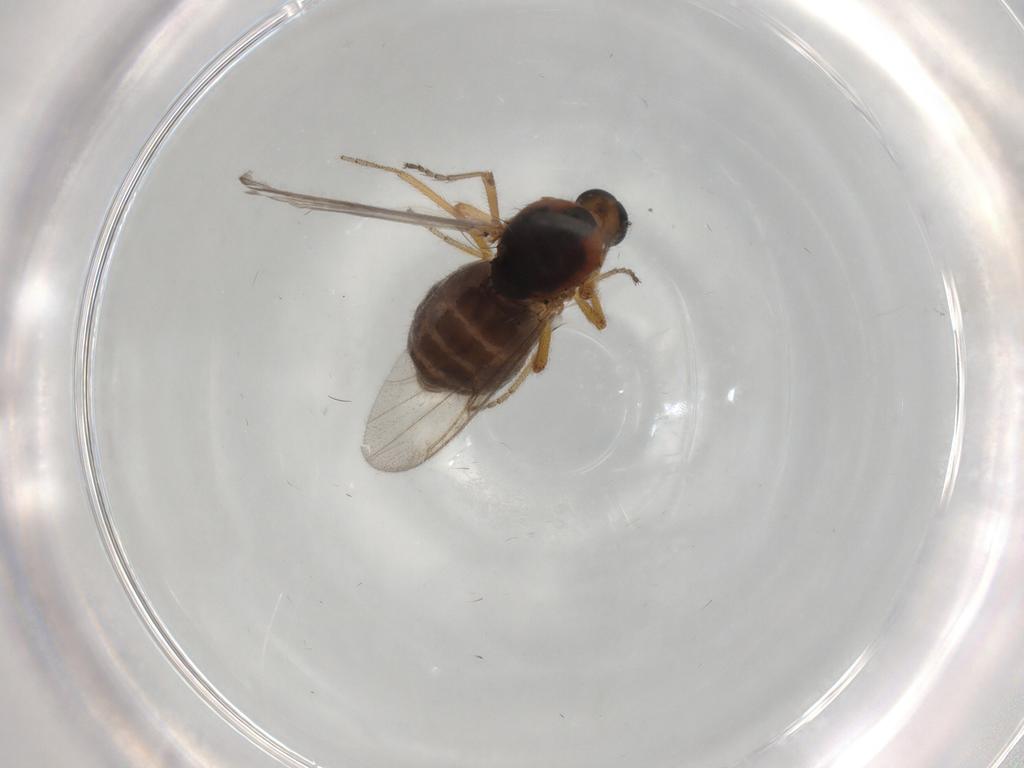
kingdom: Animalia
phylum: Arthropoda
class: Insecta
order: Diptera
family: Ceratopogonidae
